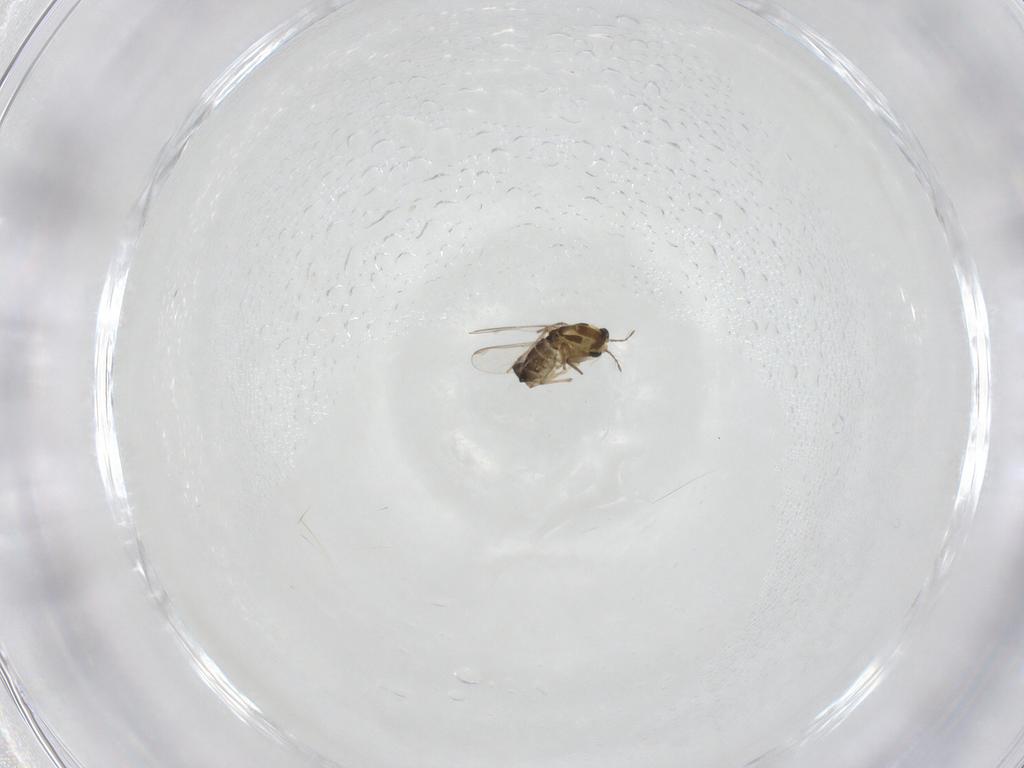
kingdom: Animalia
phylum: Arthropoda
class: Insecta
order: Diptera
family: Chironomidae
